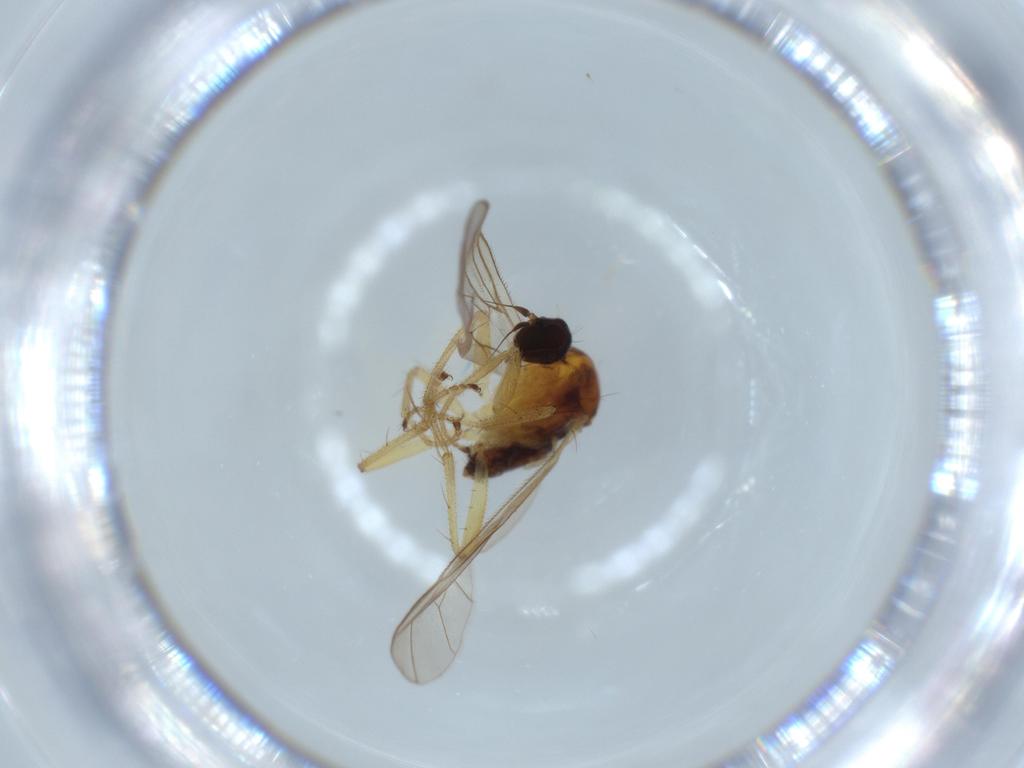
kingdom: Animalia
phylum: Arthropoda
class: Insecta
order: Diptera
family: Chironomidae
